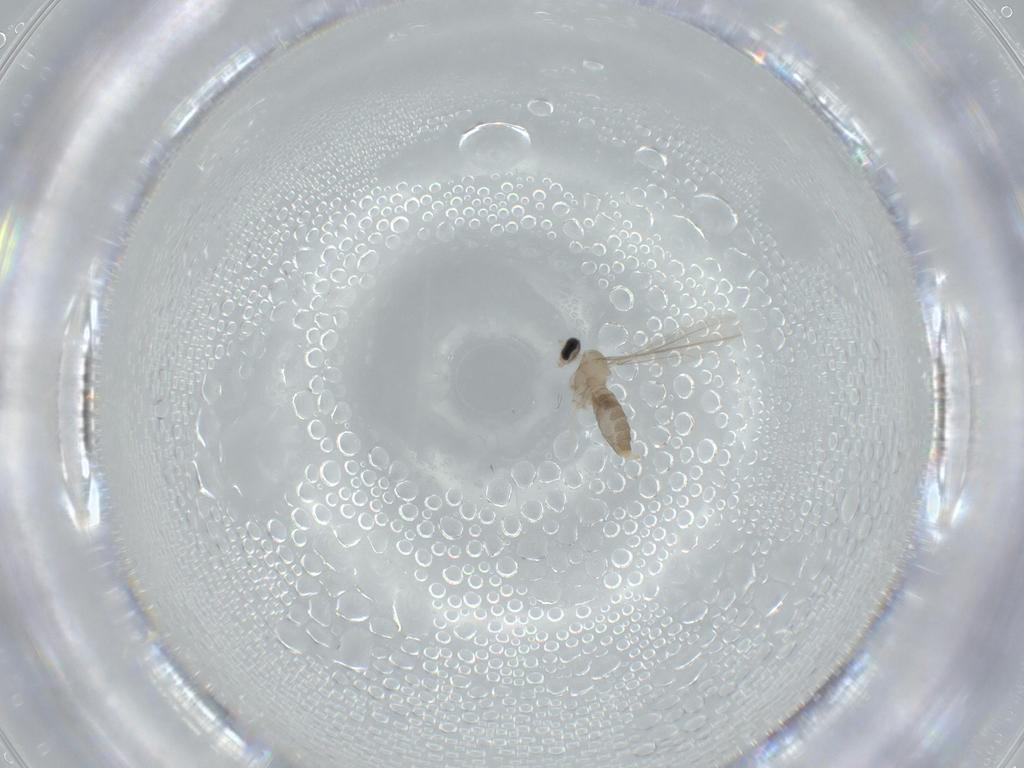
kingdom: Animalia
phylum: Arthropoda
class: Insecta
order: Diptera
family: Cecidomyiidae
